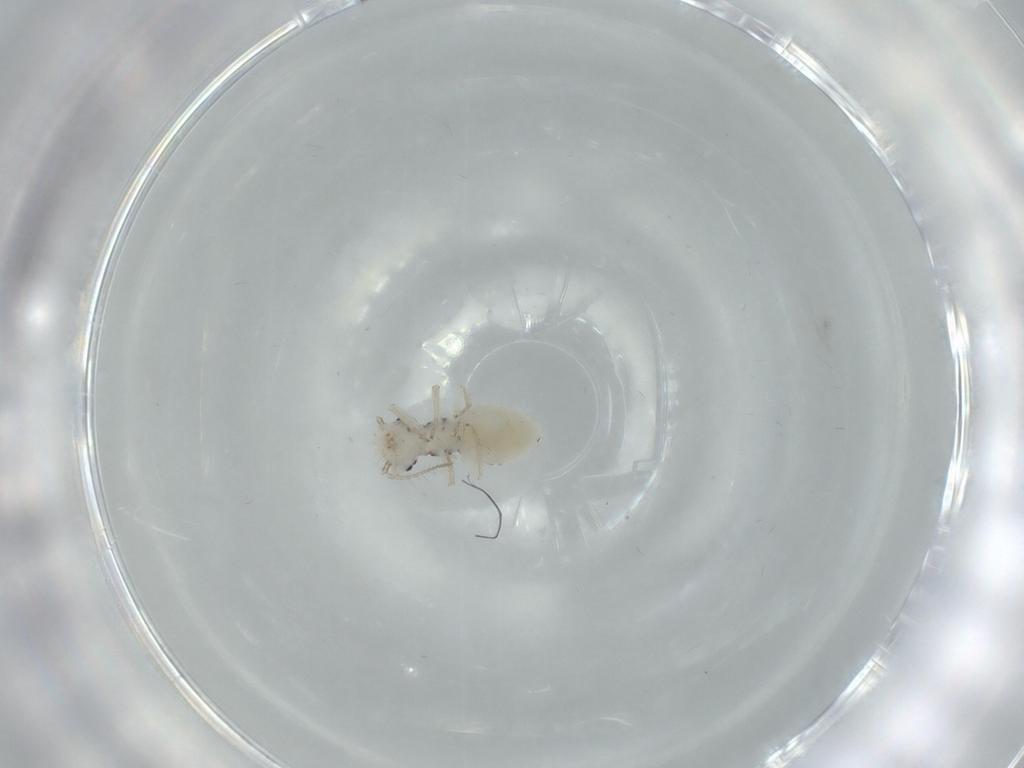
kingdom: Animalia
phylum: Arthropoda
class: Insecta
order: Psocodea
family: Pseudocaeciliidae
